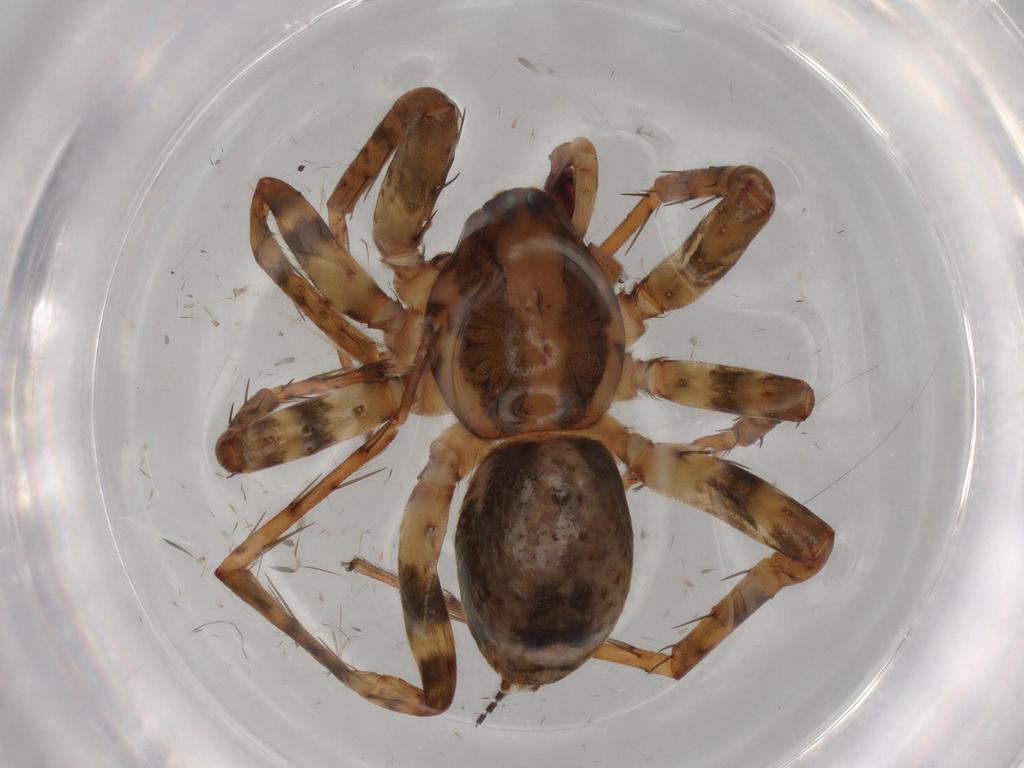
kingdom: Animalia
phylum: Arthropoda
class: Arachnida
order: Araneae
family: Anyphaenidae
